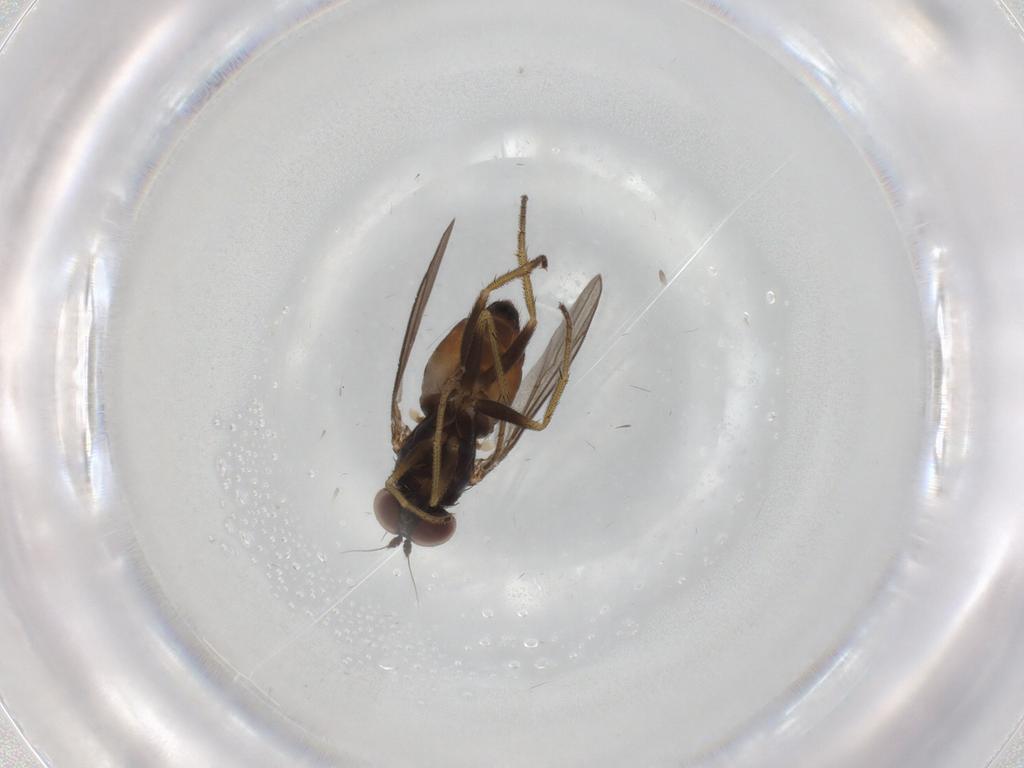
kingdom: Animalia
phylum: Arthropoda
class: Insecta
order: Diptera
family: Dolichopodidae
